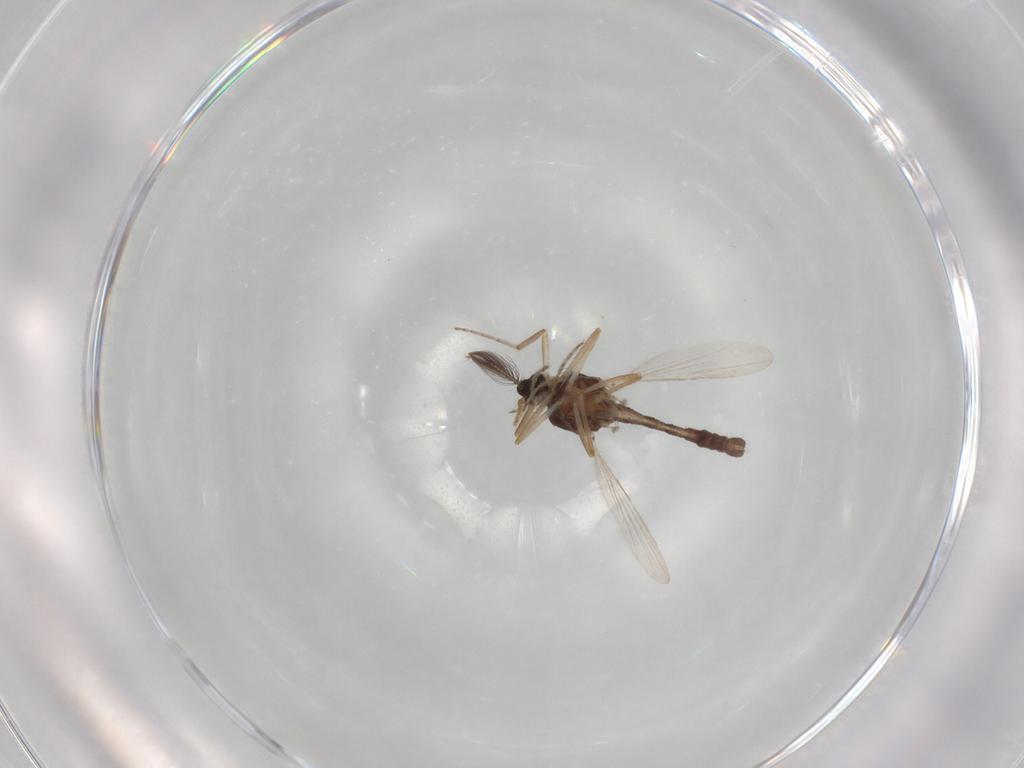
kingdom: Animalia
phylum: Arthropoda
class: Insecta
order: Diptera
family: Ceratopogonidae
